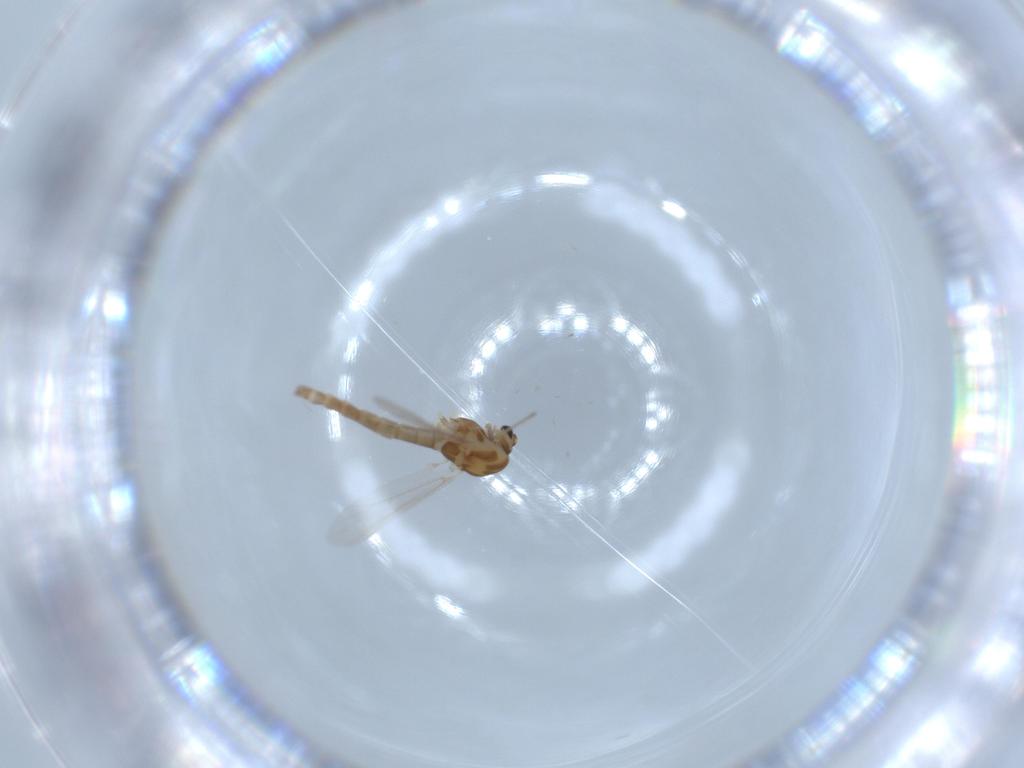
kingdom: Animalia
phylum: Arthropoda
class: Insecta
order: Diptera
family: Chironomidae
